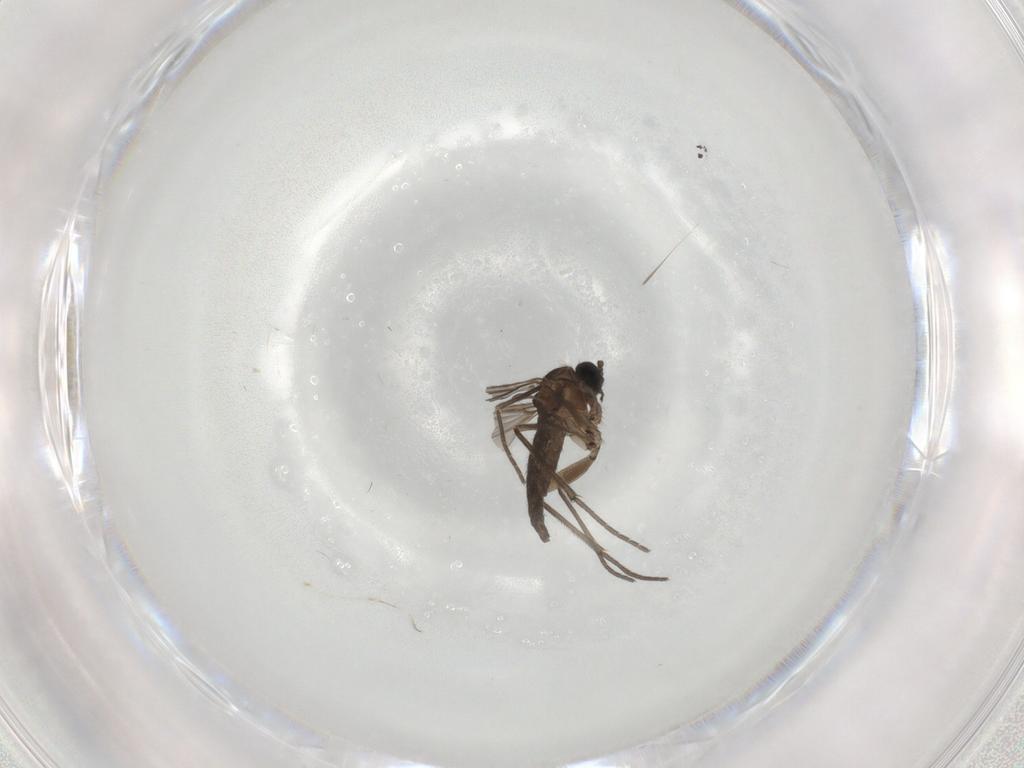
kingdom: Animalia
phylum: Arthropoda
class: Insecta
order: Diptera
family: Sciaridae
